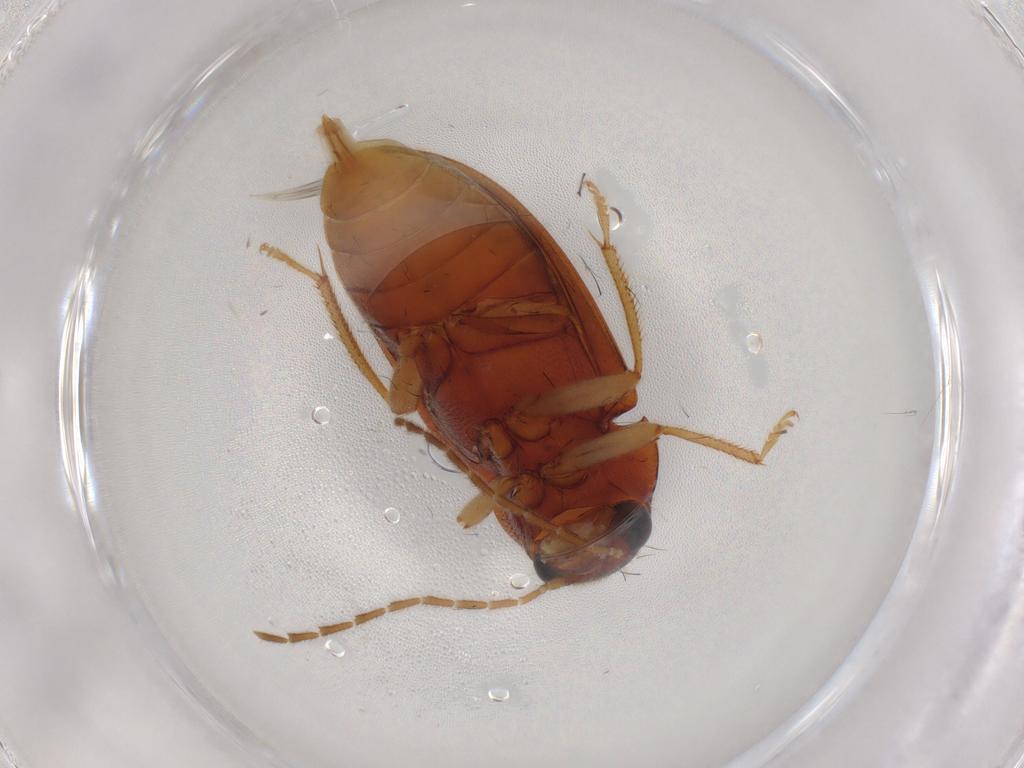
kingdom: Animalia
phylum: Arthropoda
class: Insecta
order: Coleoptera
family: Ptilodactylidae
